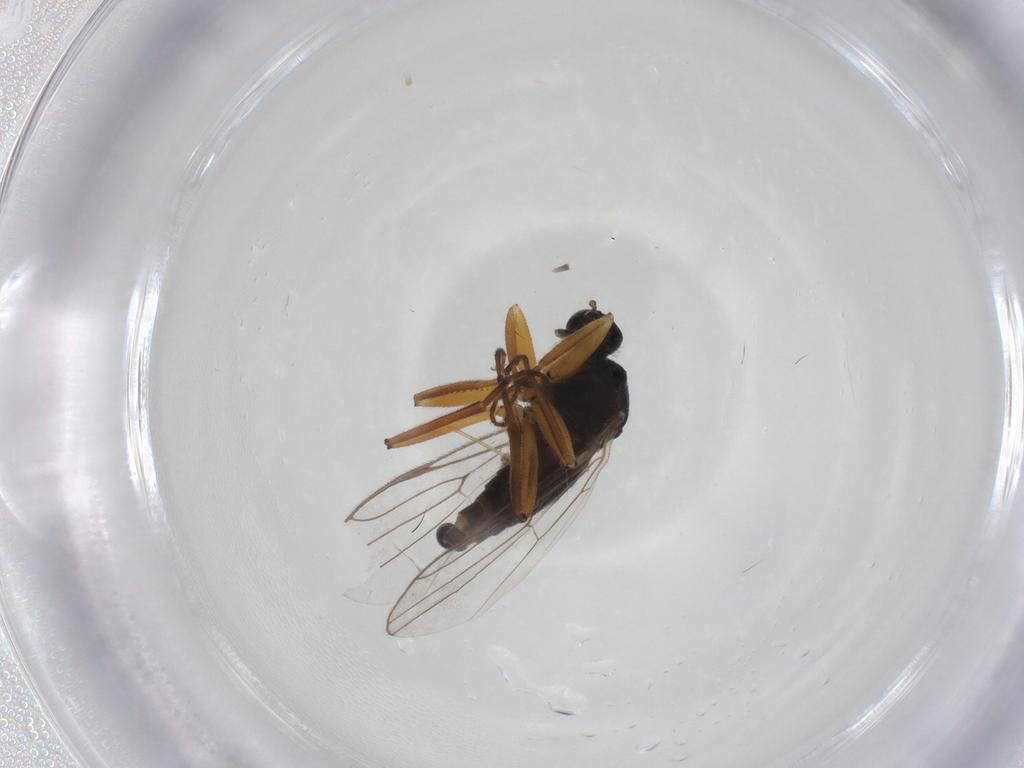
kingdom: Animalia
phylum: Arthropoda
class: Insecta
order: Diptera
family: Hybotidae
